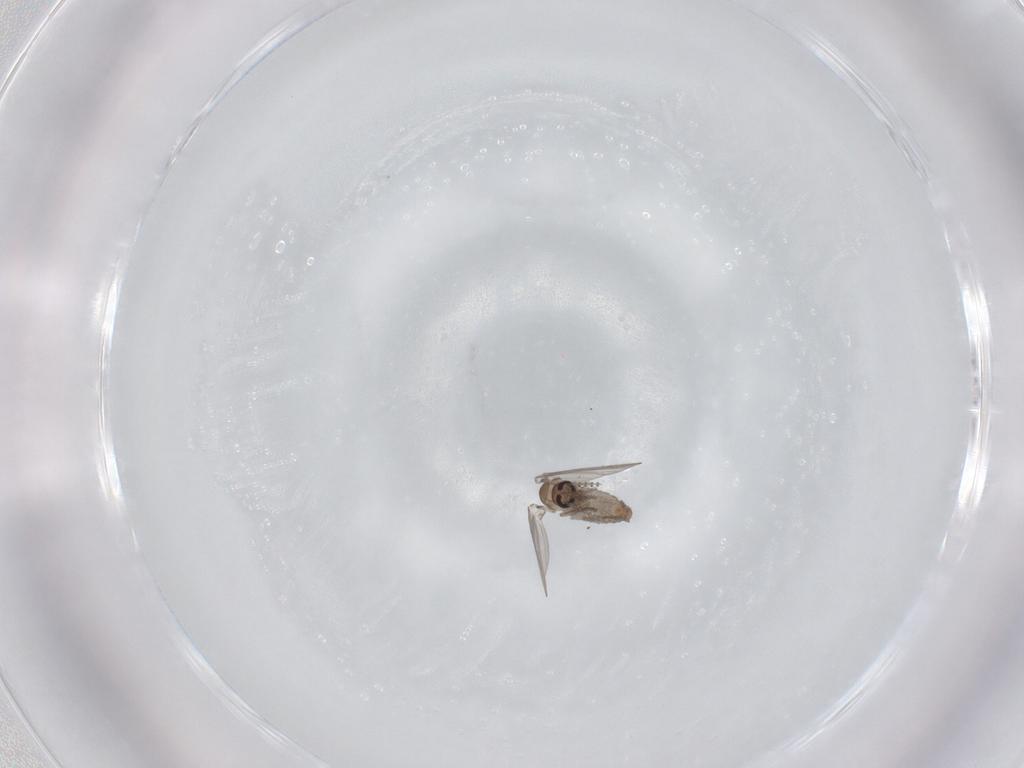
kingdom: Animalia
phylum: Arthropoda
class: Insecta
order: Diptera
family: Psychodidae
